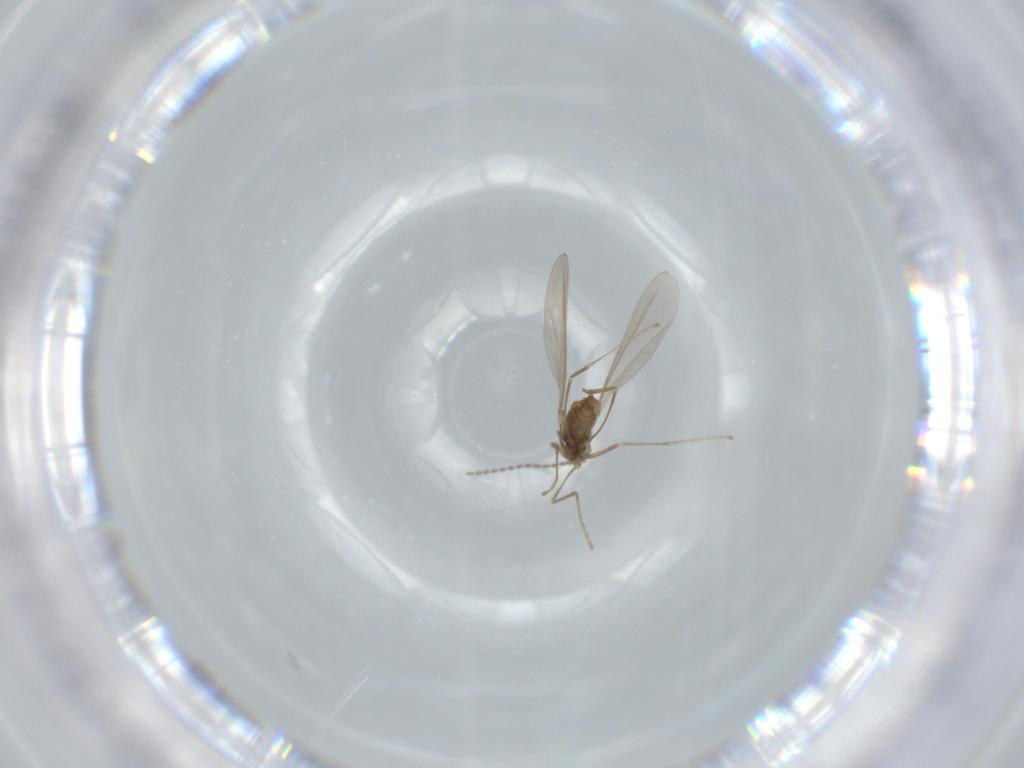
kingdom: Animalia
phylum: Arthropoda
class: Insecta
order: Diptera
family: Cecidomyiidae
